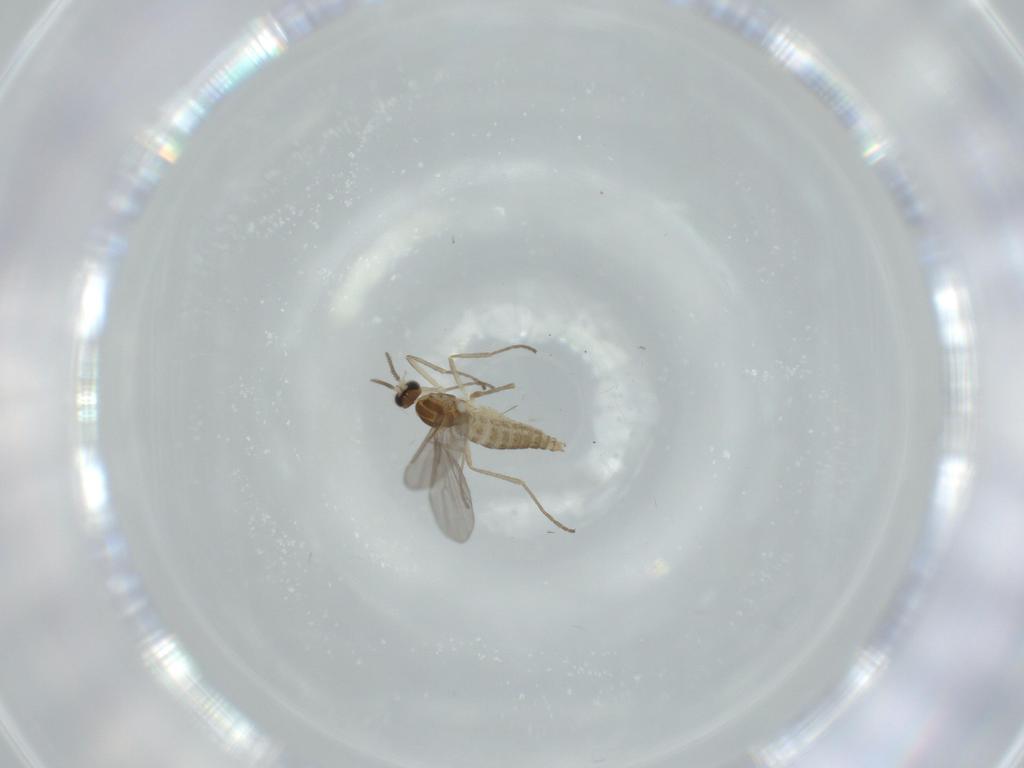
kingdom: Animalia
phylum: Arthropoda
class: Insecta
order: Diptera
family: Cecidomyiidae
